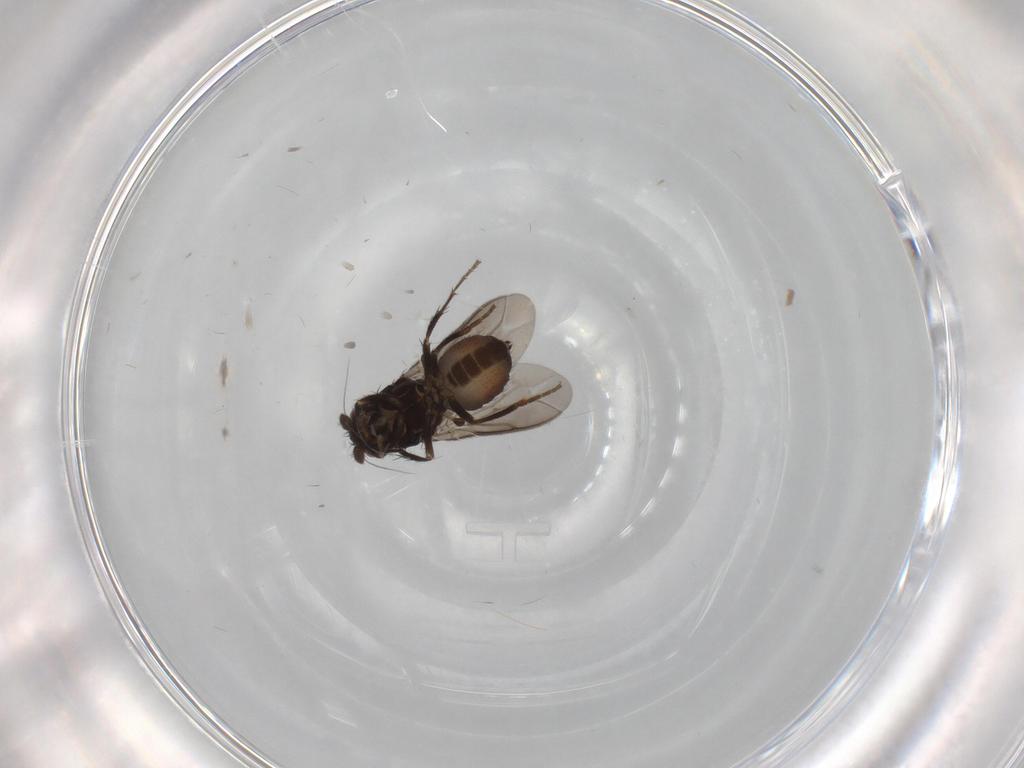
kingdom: Animalia
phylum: Arthropoda
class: Insecta
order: Diptera
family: Sphaeroceridae
